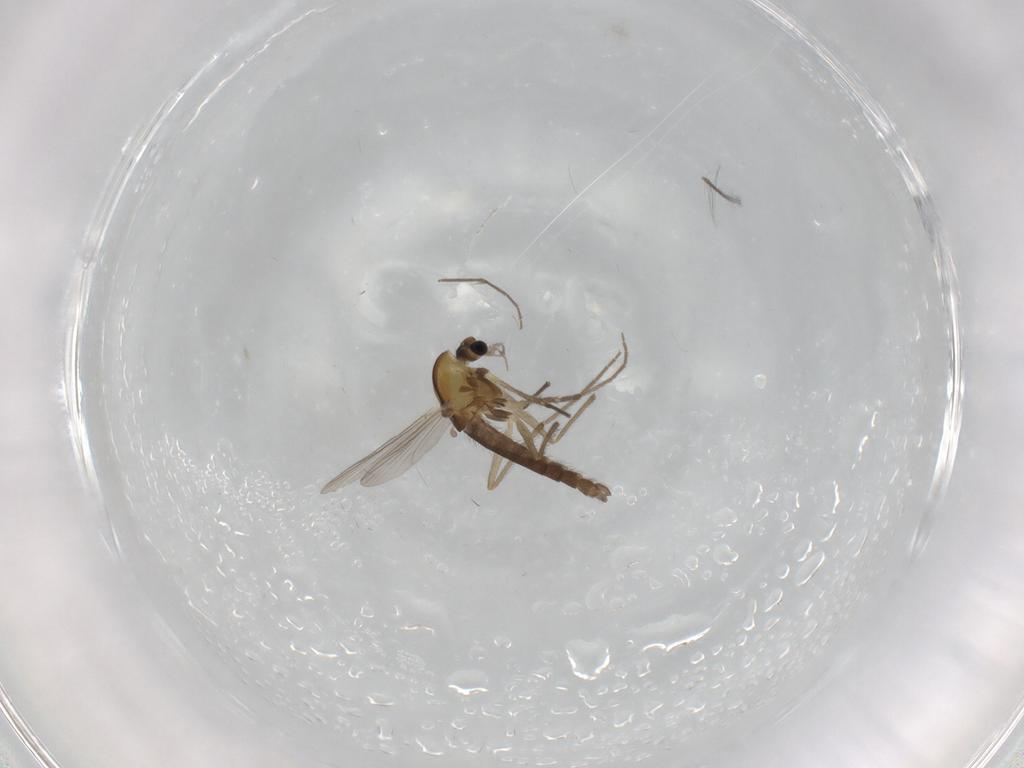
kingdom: Animalia
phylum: Arthropoda
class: Insecta
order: Diptera
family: Chironomidae
